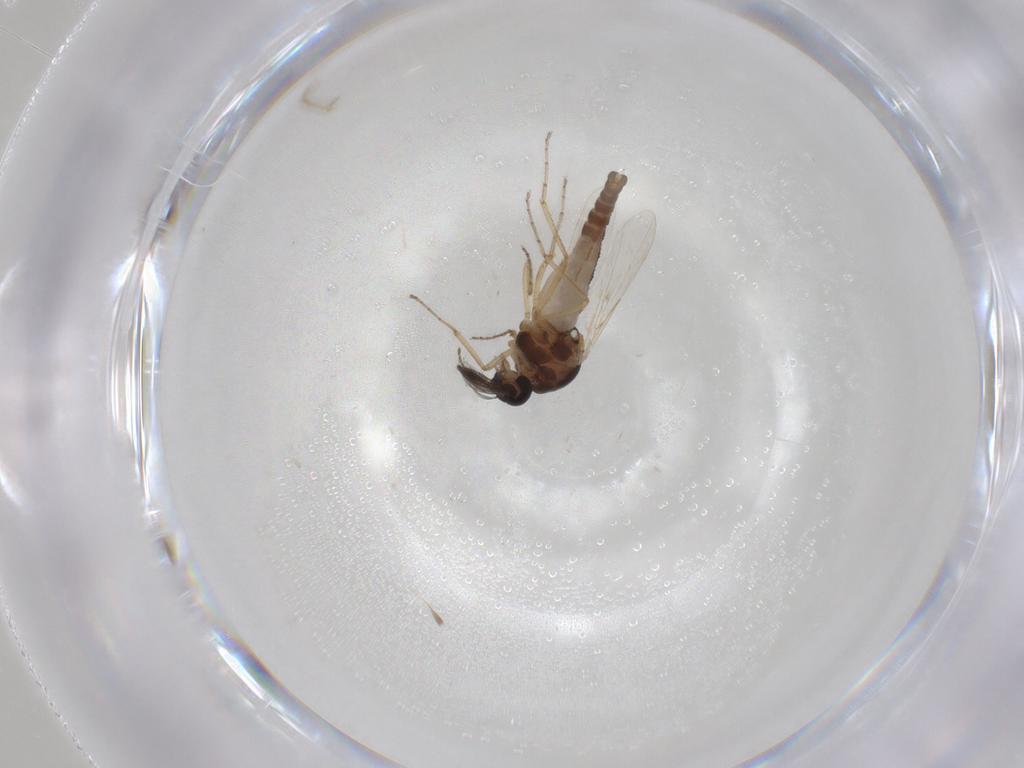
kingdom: Animalia
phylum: Arthropoda
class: Insecta
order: Diptera
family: Ceratopogonidae
